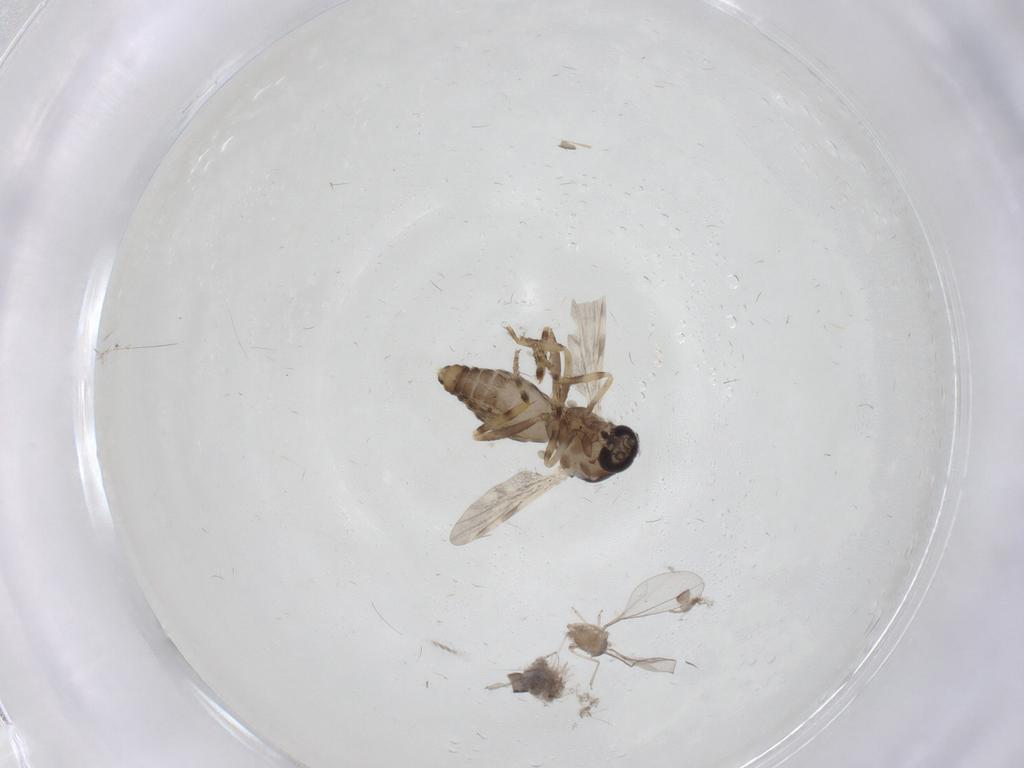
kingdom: Animalia
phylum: Arthropoda
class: Insecta
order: Diptera
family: Ceratopogonidae
